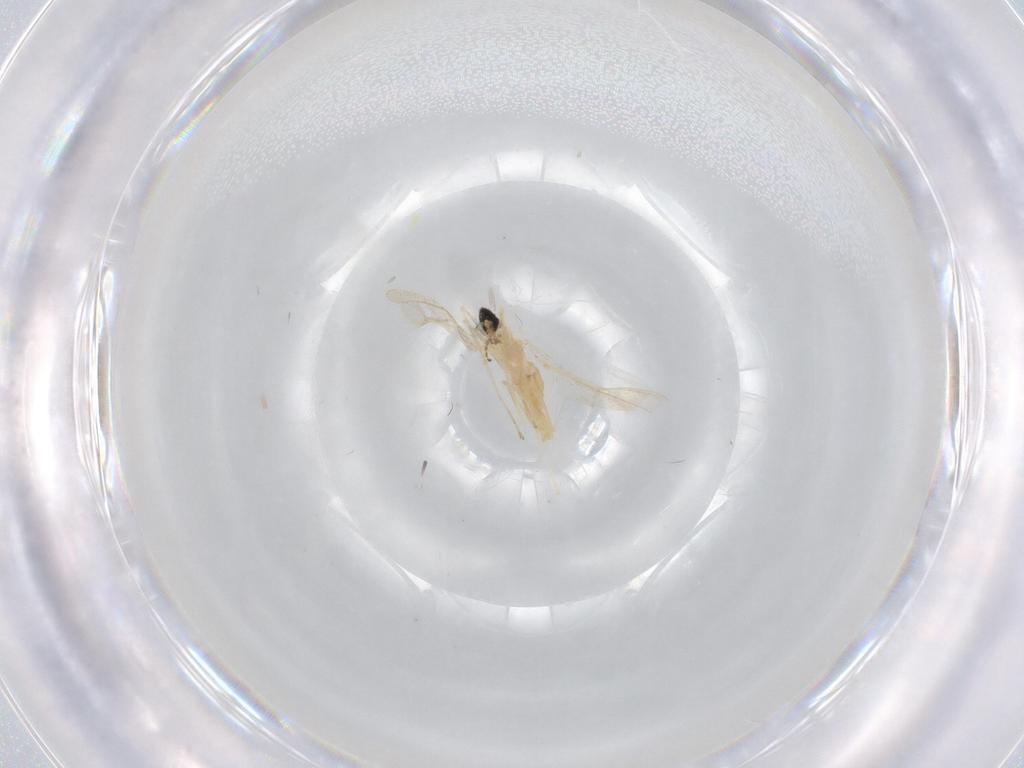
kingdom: Animalia
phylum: Arthropoda
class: Insecta
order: Diptera
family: Cecidomyiidae
